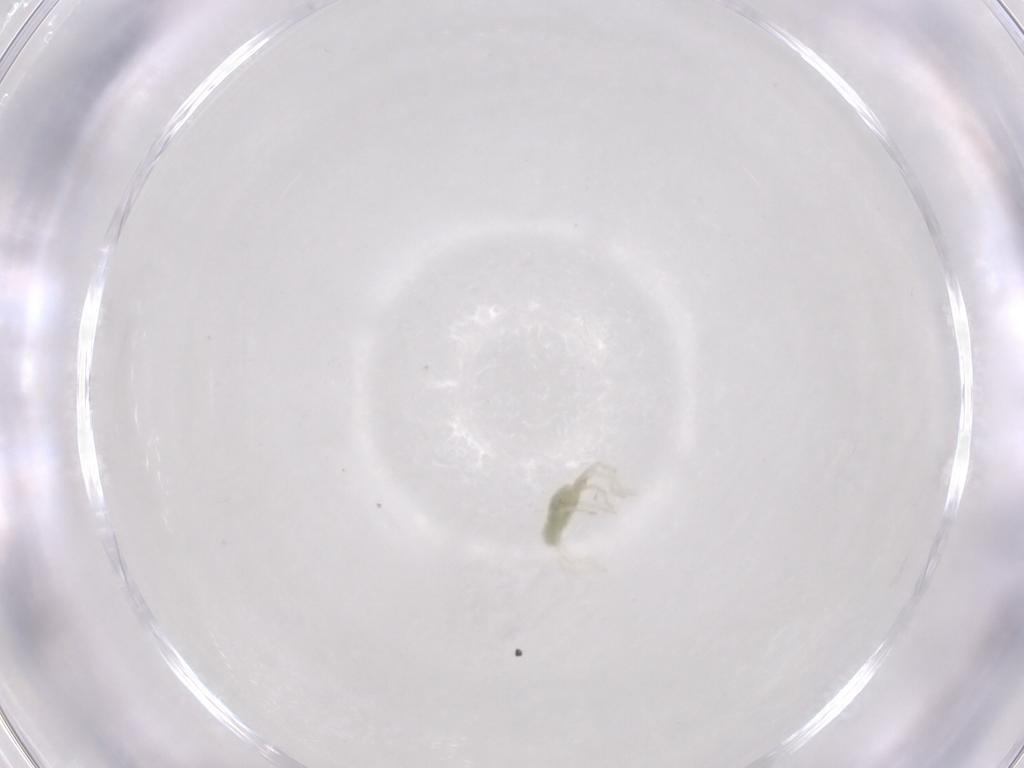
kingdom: Animalia
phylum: Arthropoda
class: Arachnida
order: Trombidiformes
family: Erythraeidae
